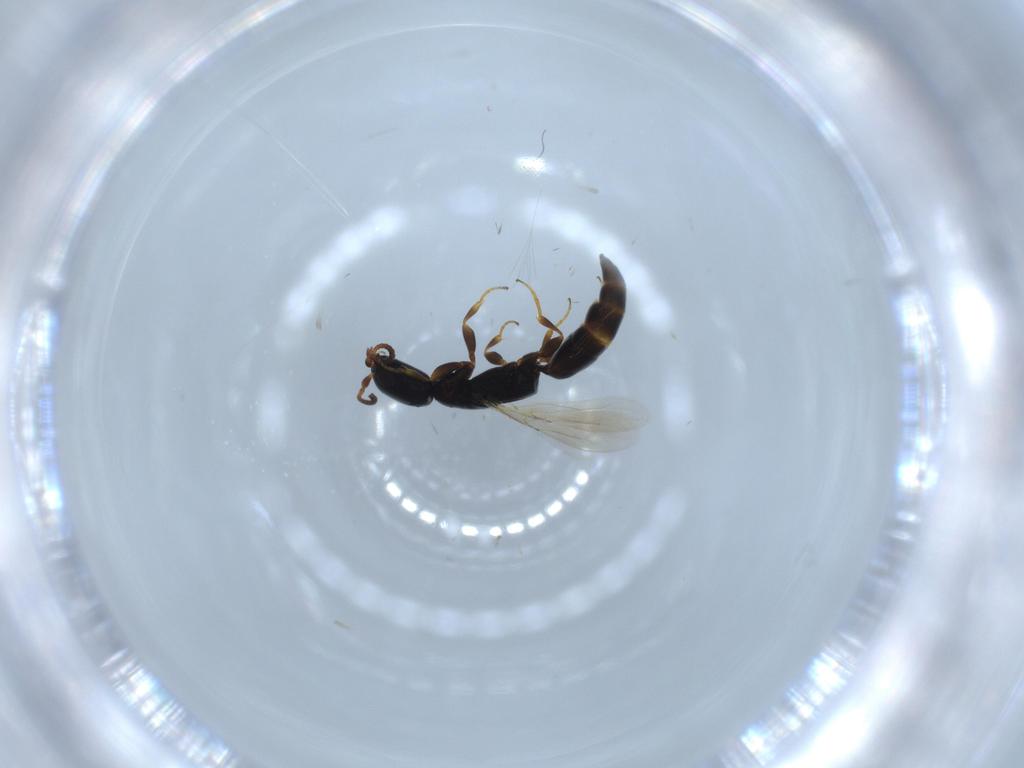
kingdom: Animalia
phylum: Arthropoda
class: Insecta
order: Hymenoptera
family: Bethylidae
